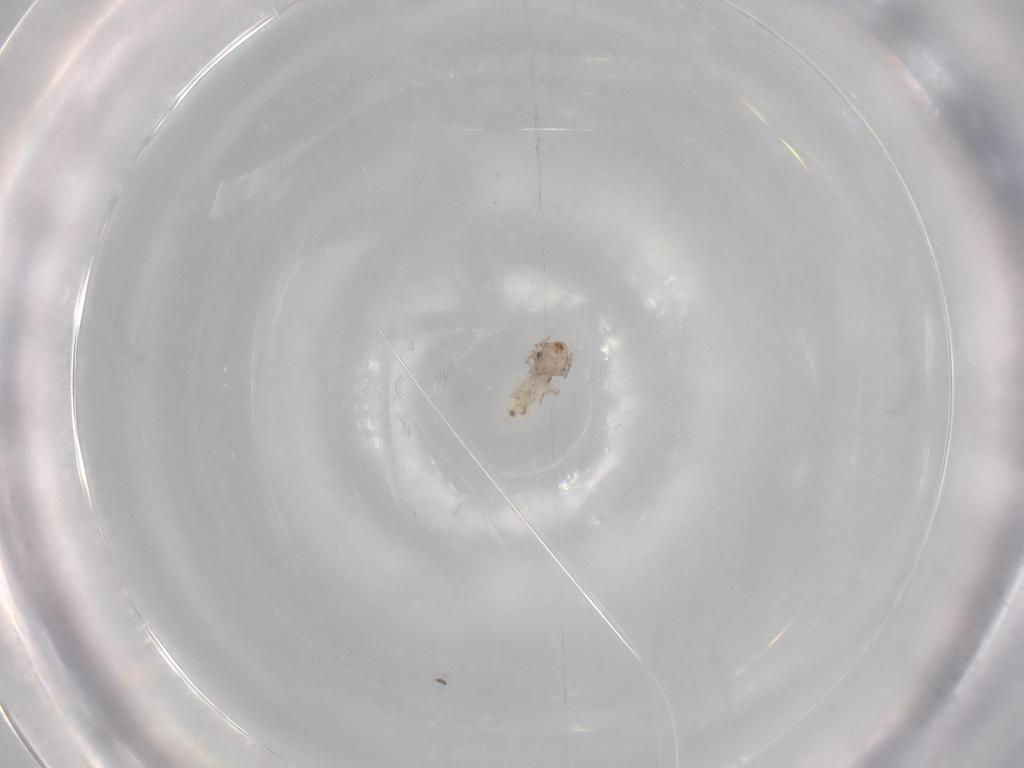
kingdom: Animalia
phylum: Arthropoda
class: Insecta
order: Psocodea
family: Lepidopsocidae
